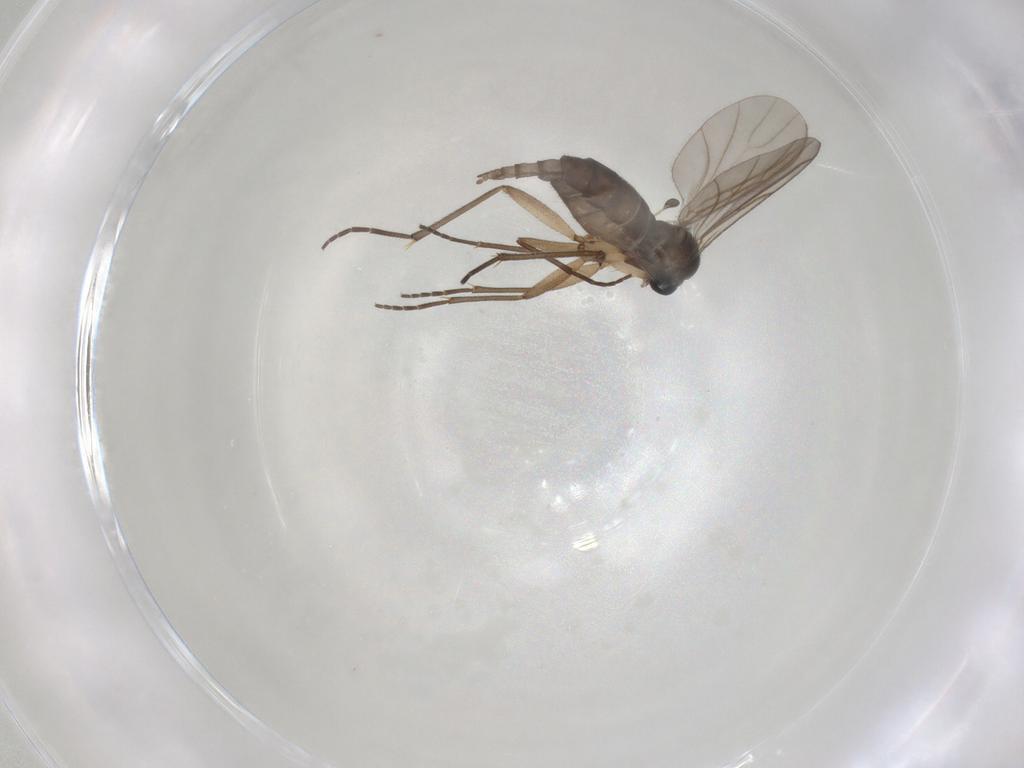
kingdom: Animalia
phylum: Arthropoda
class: Insecta
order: Diptera
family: Sciaridae
